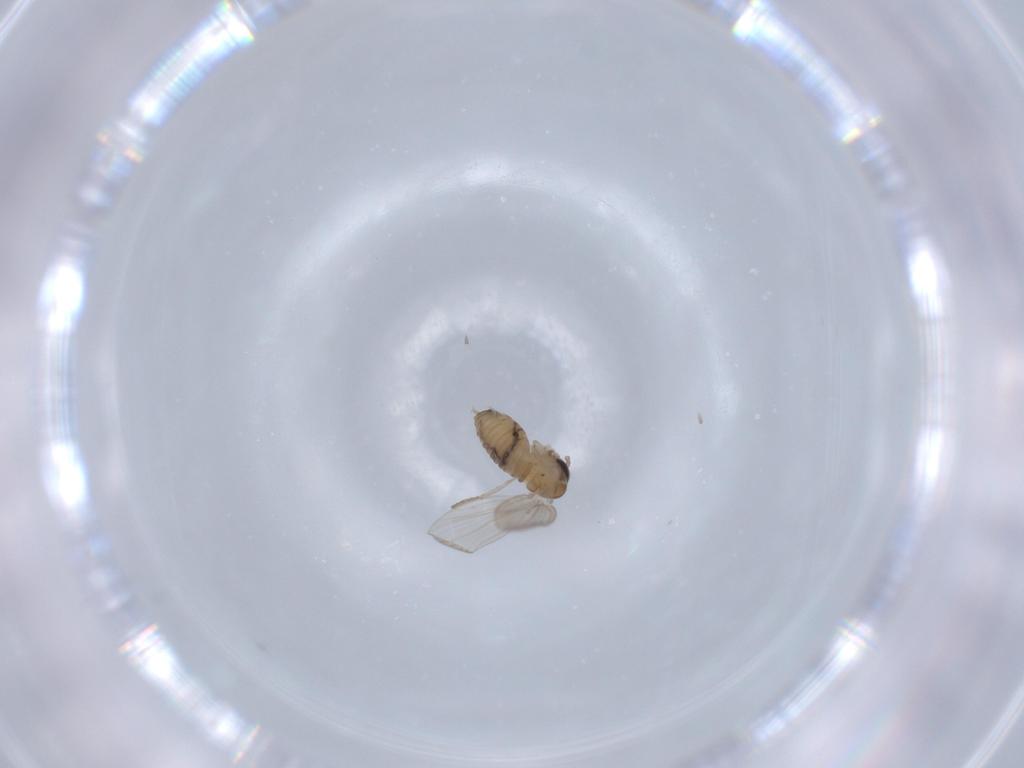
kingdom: Animalia
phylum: Arthropoda
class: Insecta
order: Diptera
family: Psychodidae
